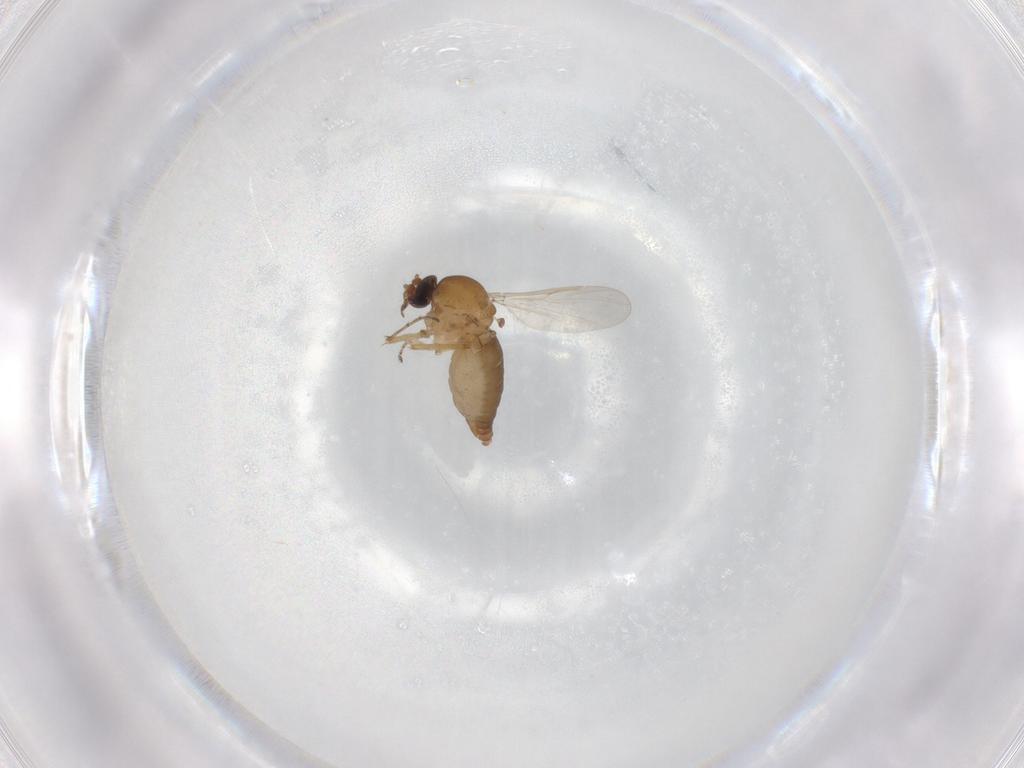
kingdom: Animalia
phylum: Arthropoda
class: Insecta
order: Diptera
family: Ceratopogonidae
